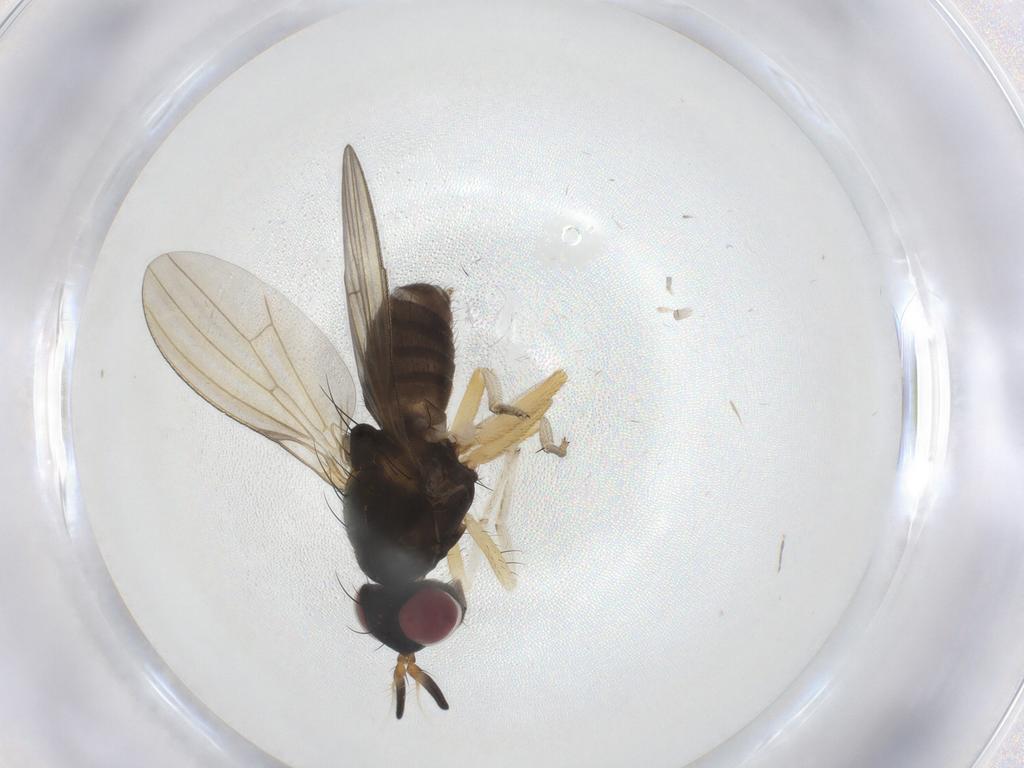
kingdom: Animalia
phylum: Arthropoda
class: Insecta
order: Diptera
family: Lauxaniidae
